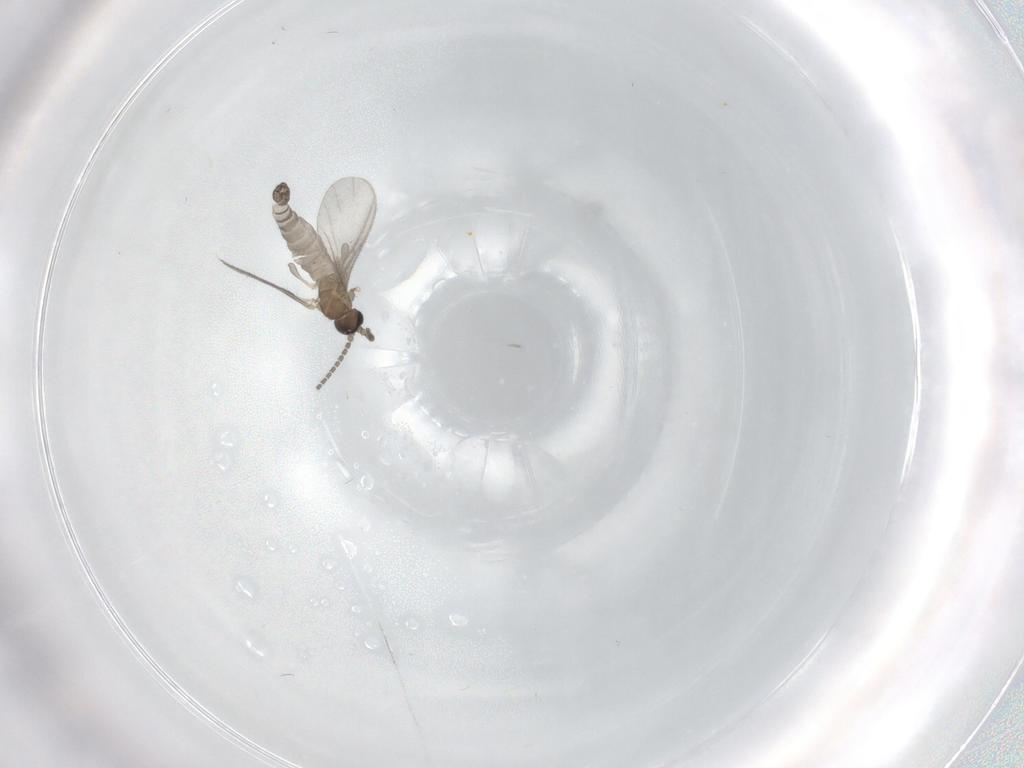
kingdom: Animalia
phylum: Arthropoda
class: Insecta
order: Diptera
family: Sciaridae
